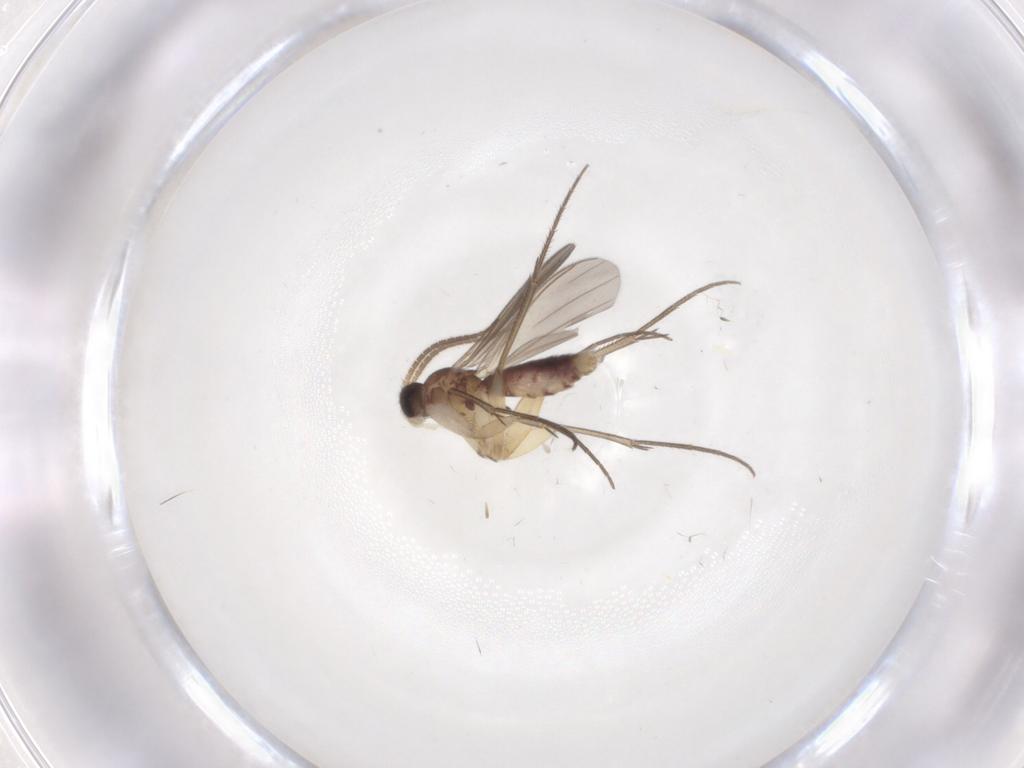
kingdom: Animalia
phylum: Arthropoda
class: Insecta
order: Diptera
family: Mycetophilidae
